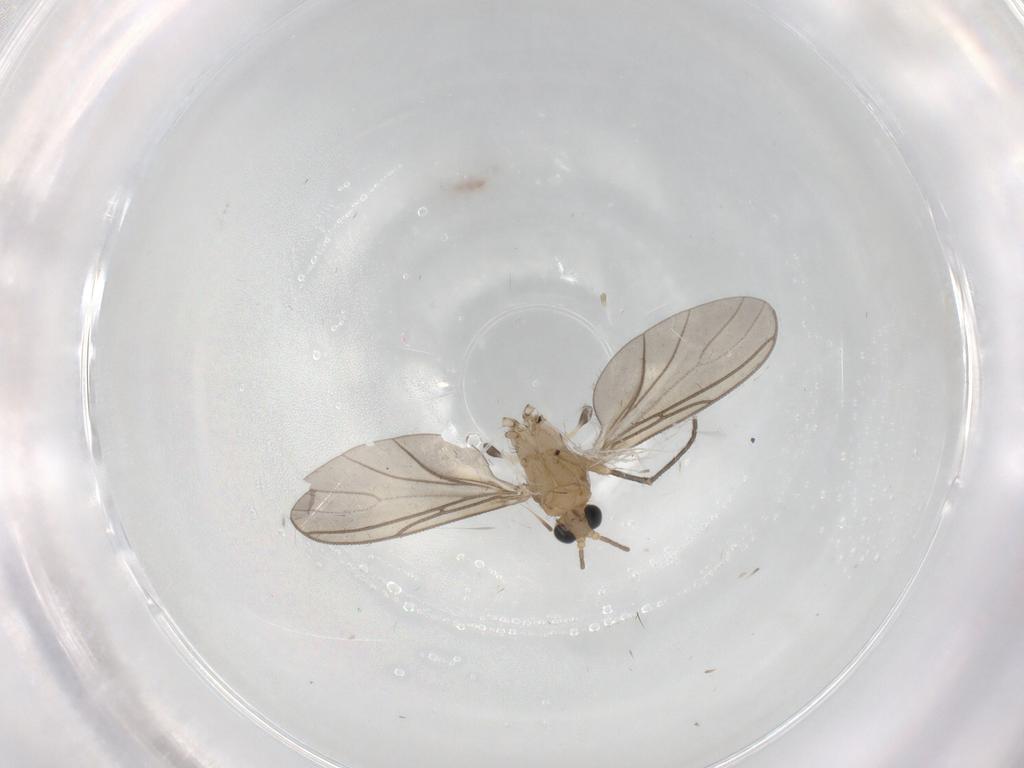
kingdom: Animalia
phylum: Arthropoda
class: Insecta
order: Diptera
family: Sciaridae
